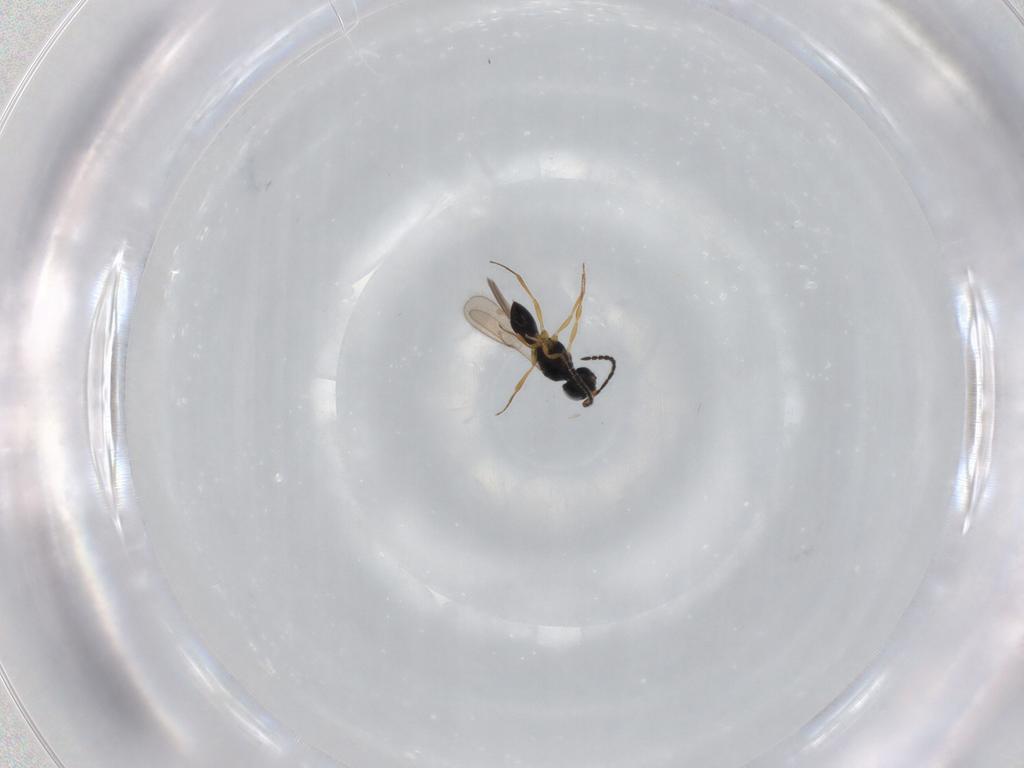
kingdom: Animalia
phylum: Arthropoda
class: Insecta
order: Hymenoptera
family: Scelionidae
